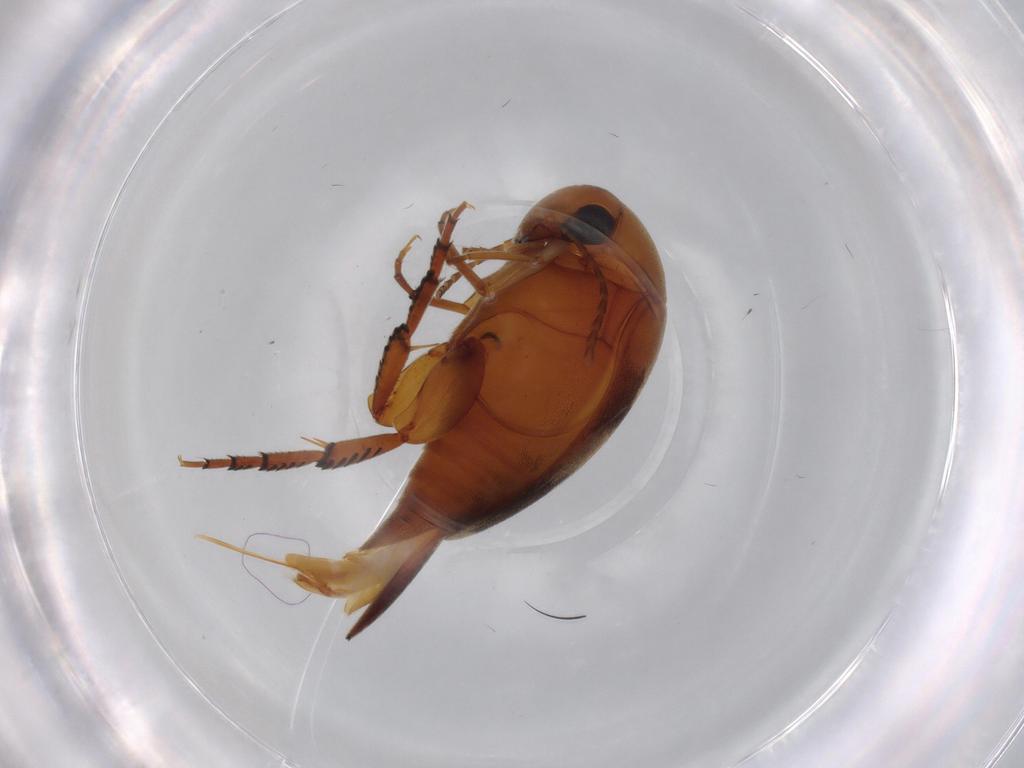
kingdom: Animalia
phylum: Arthropoda
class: Insecta
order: Coleoptera
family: Mordellidae
